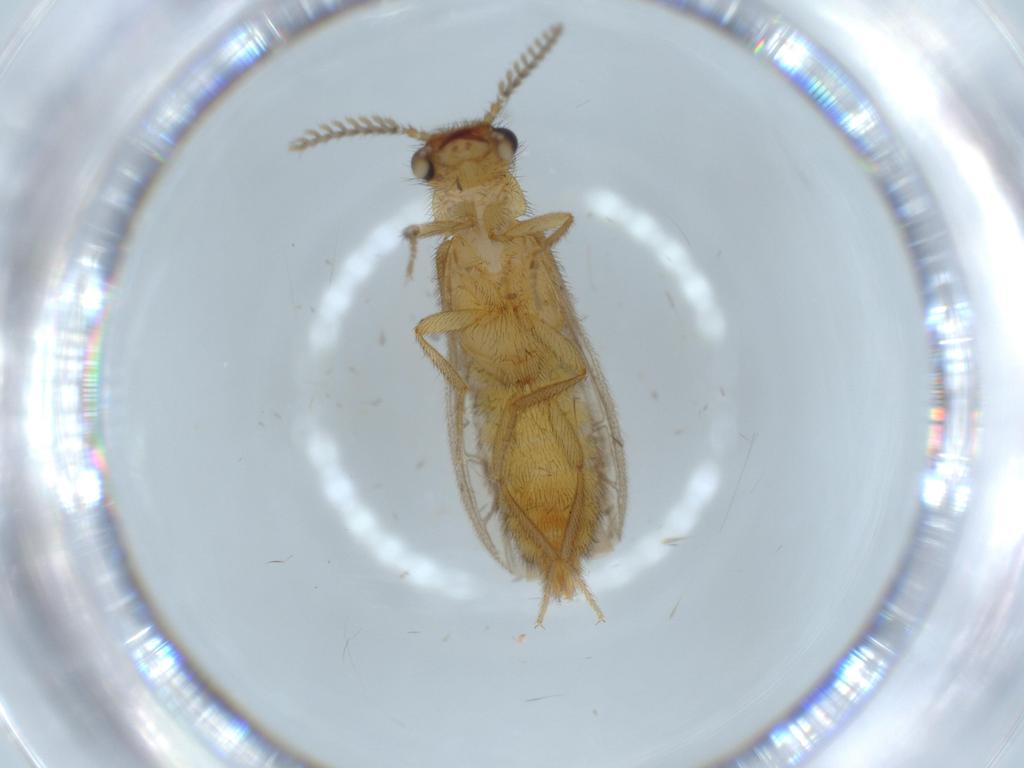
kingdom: Animalia
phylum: Arthropoda
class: Insecta
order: Coleoptera
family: Bostrichidae
